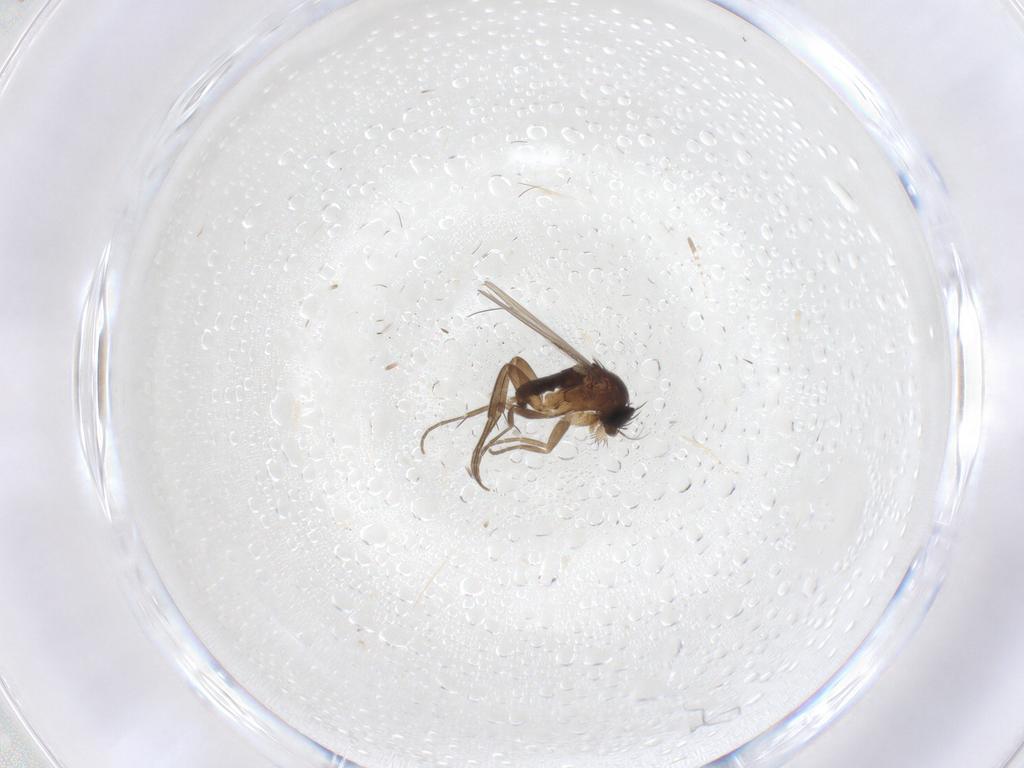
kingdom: Animalia
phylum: Arthropoda
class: Insecta
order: Diptera
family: Phoridae
